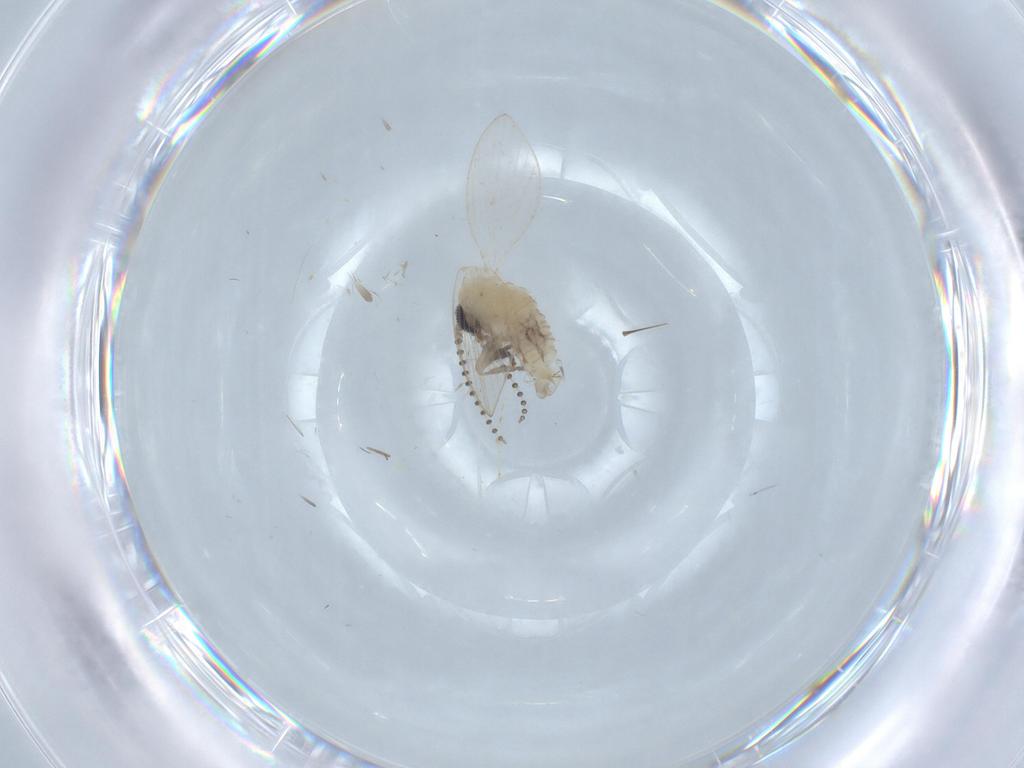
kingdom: Animalia
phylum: Arthropoda
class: Insecta
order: Diptera
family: Psychodidae
